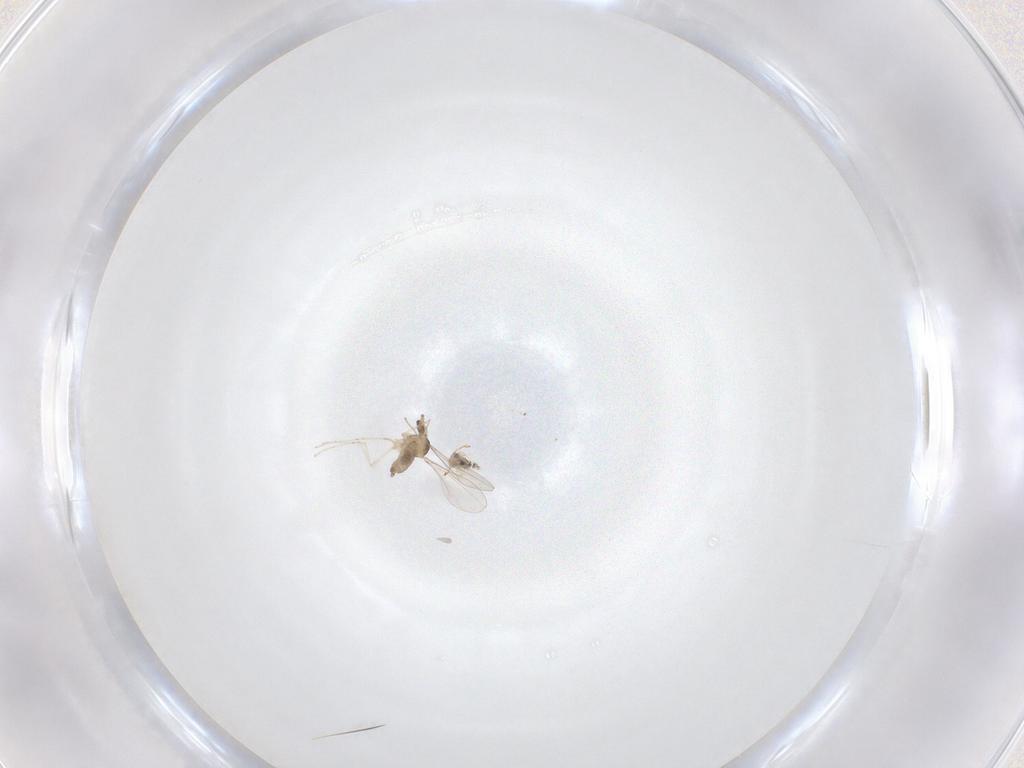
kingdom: Animalia
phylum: Arthropoda
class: Insecta
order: Diptera
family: Cecidomyiidae
